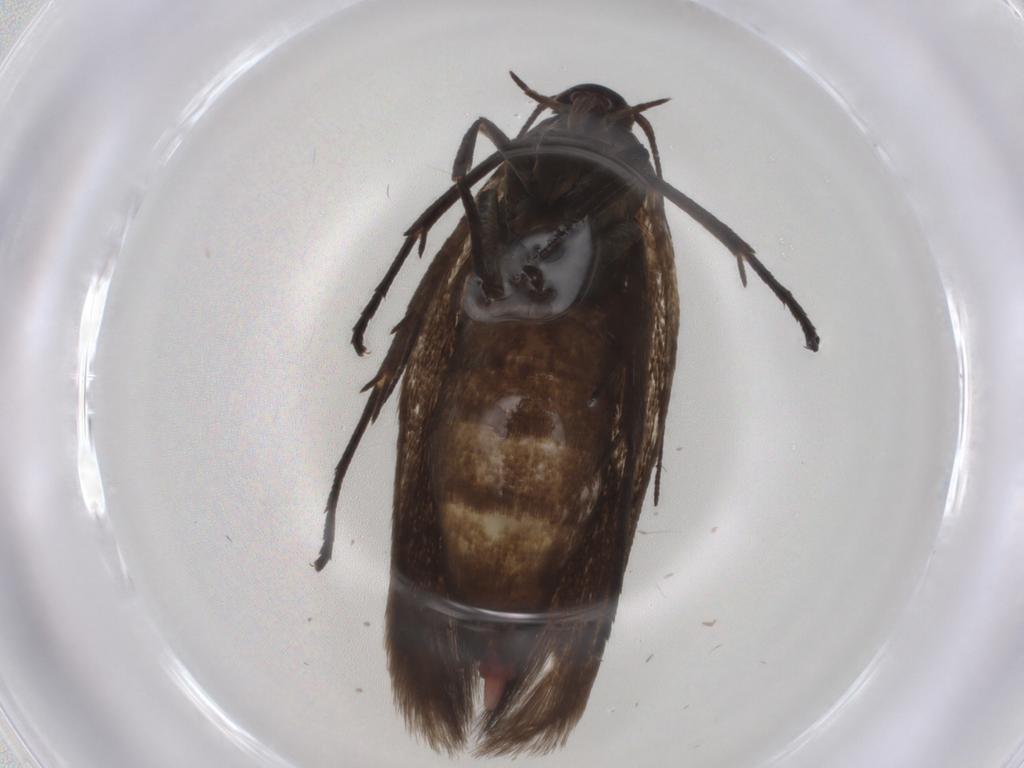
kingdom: Animalia
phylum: Arthropoda
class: Insecta
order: Lepidoptera
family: Scythrididae
